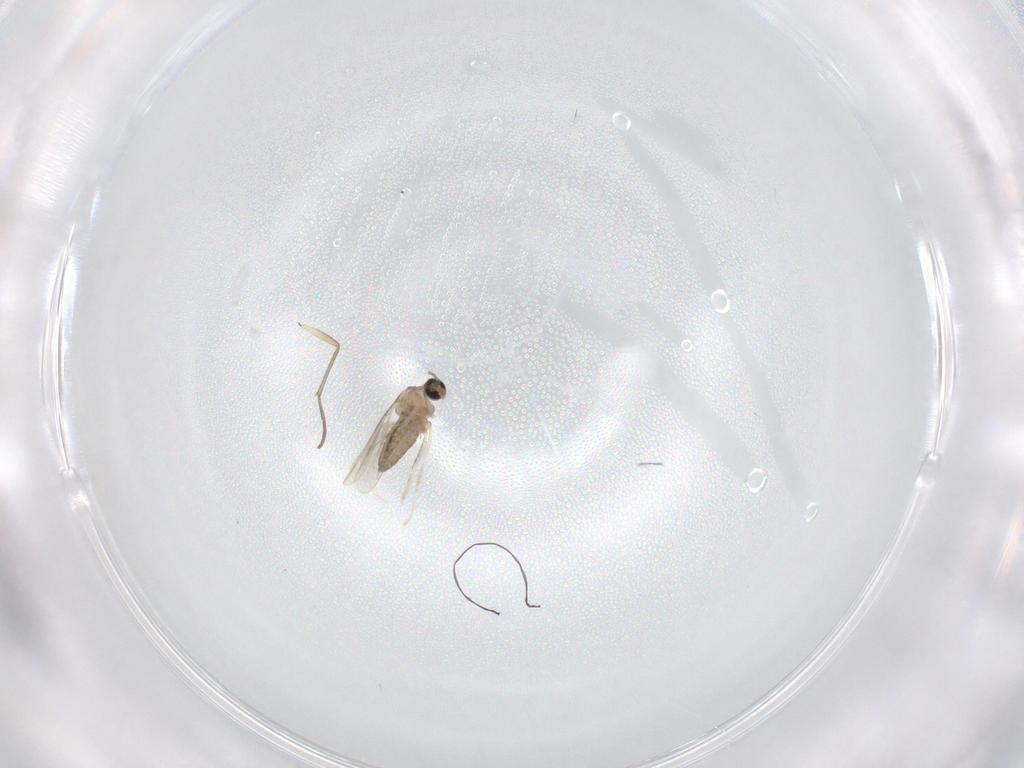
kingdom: Animalia
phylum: Arthropoda
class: Insecta
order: Diptera
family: Cecidomyiidae
